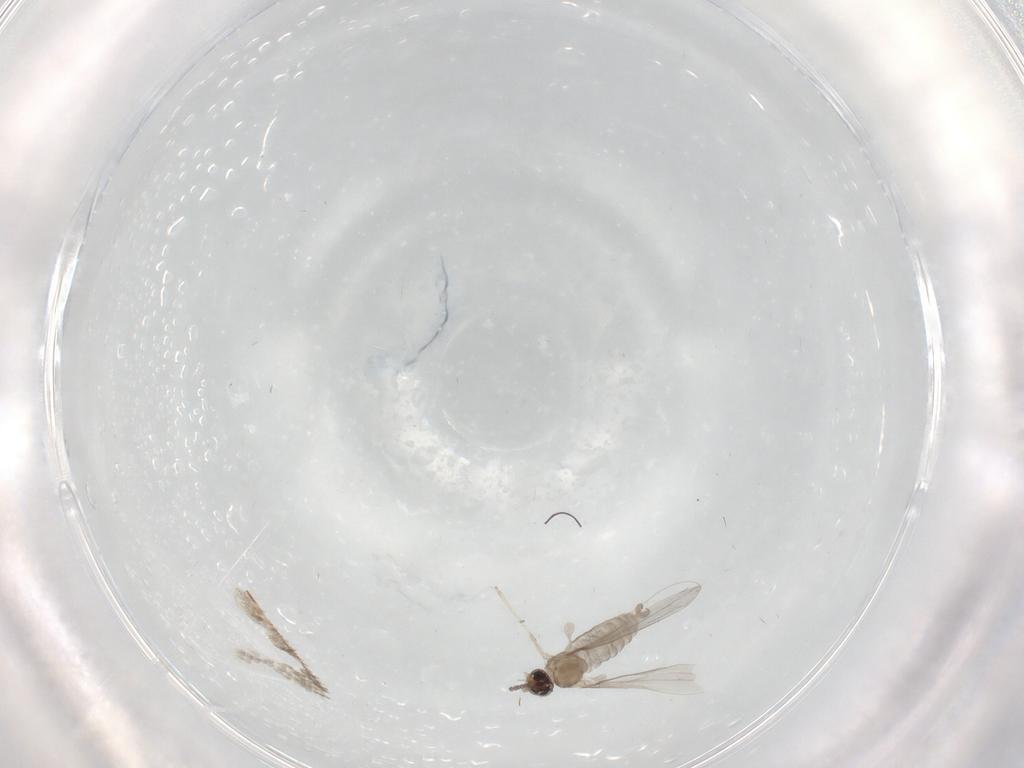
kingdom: Animalia
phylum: Arthropoda
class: Insecta
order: Diptera
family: Cecidomyiidae
